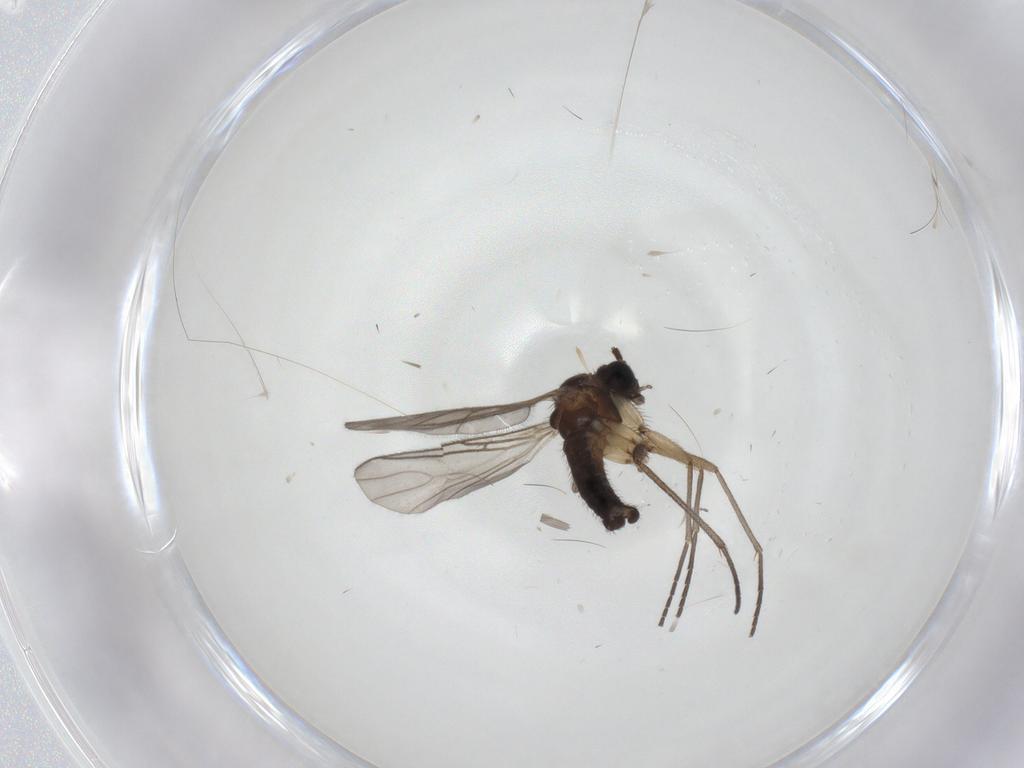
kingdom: Animalia
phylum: Arthropoda
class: Insecta
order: Diptera
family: Sciaridae
